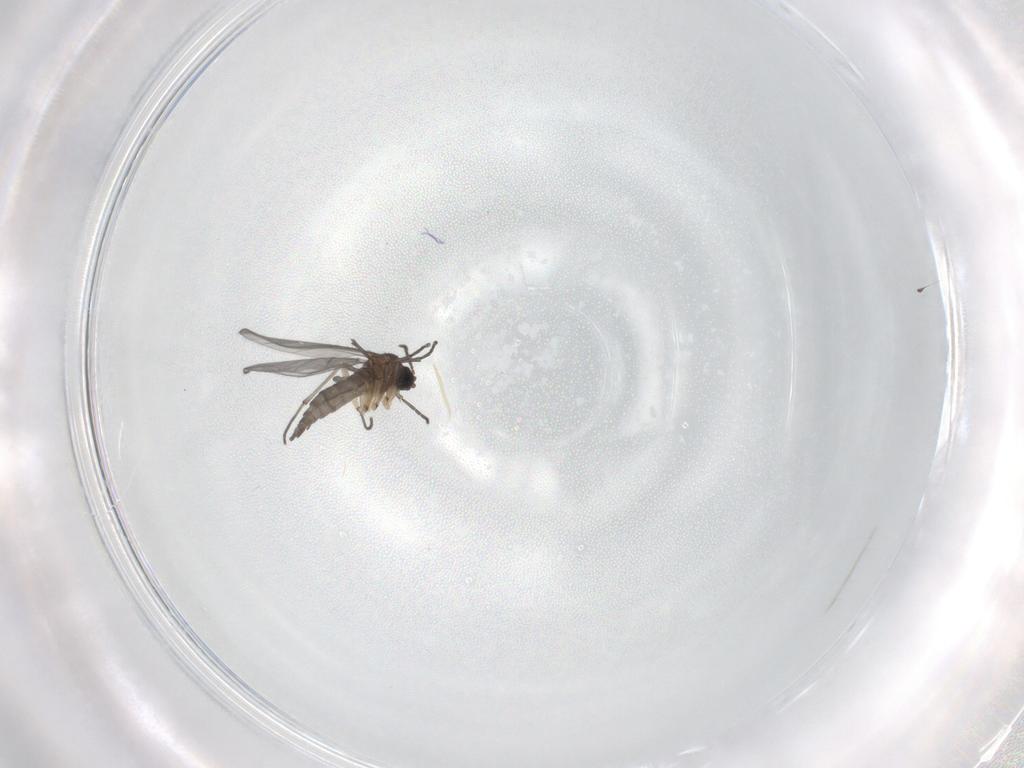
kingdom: Animalia
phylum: Arthropoda
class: Insecta
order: Diptera
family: Sciaridae
